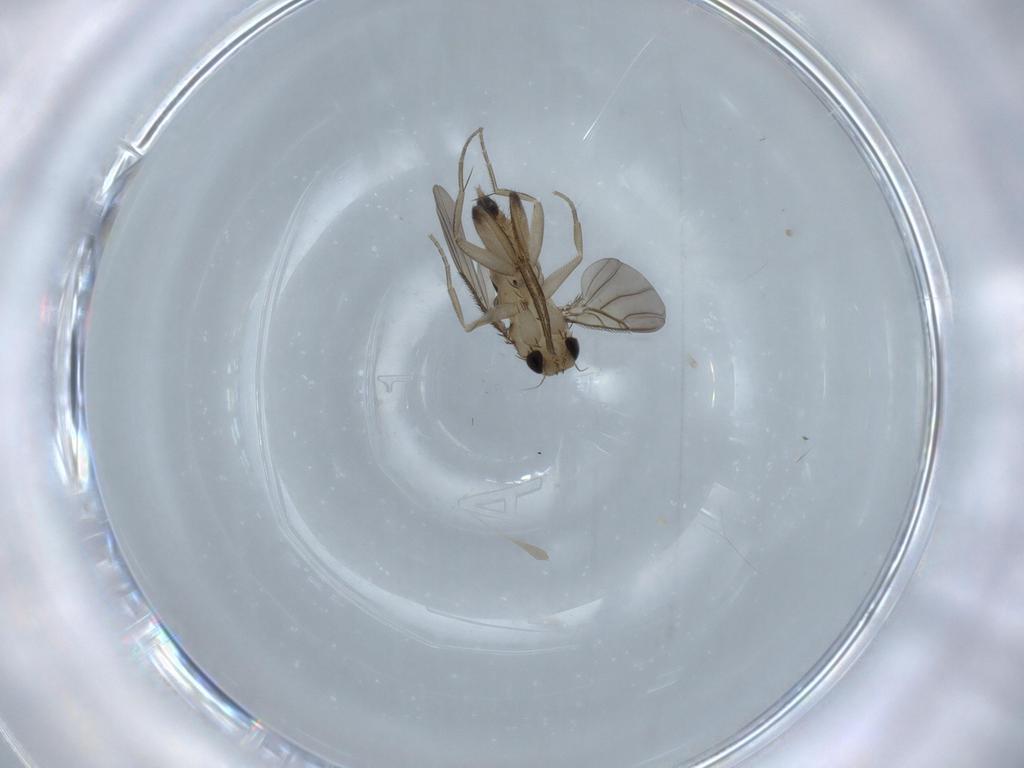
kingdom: Animalia
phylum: Arthropoda
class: Insecta
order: Diptera
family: Phoridae
